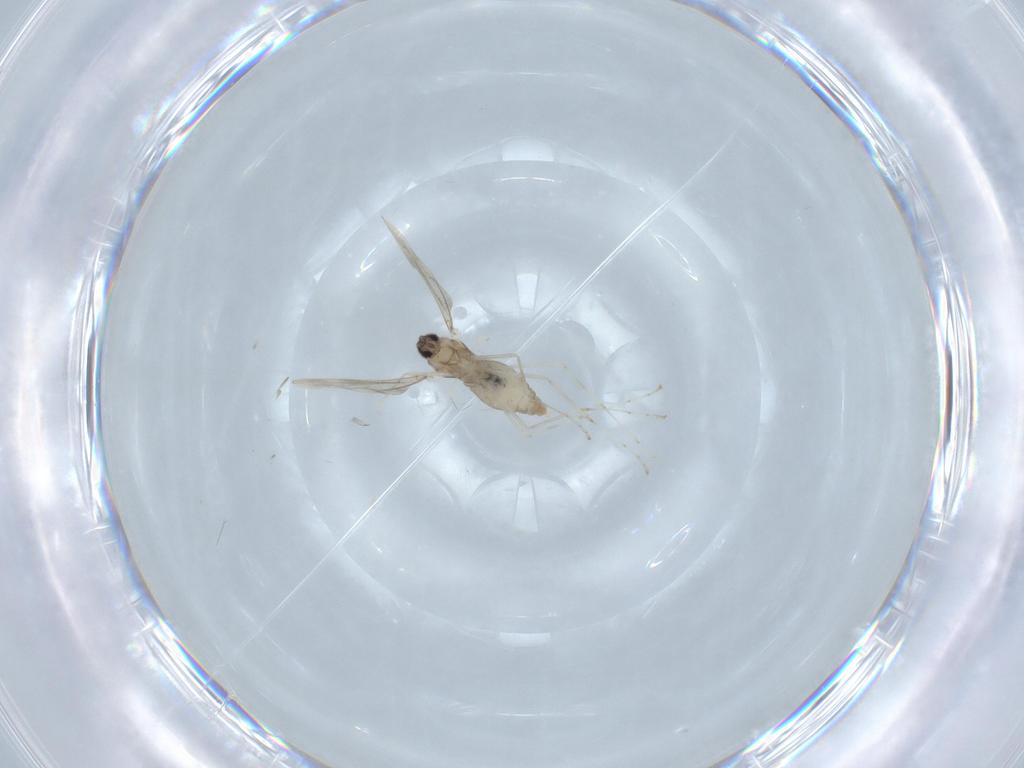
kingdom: Animalia
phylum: Arthropoda
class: Insecta
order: Diptera
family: Cecidomyiidae
